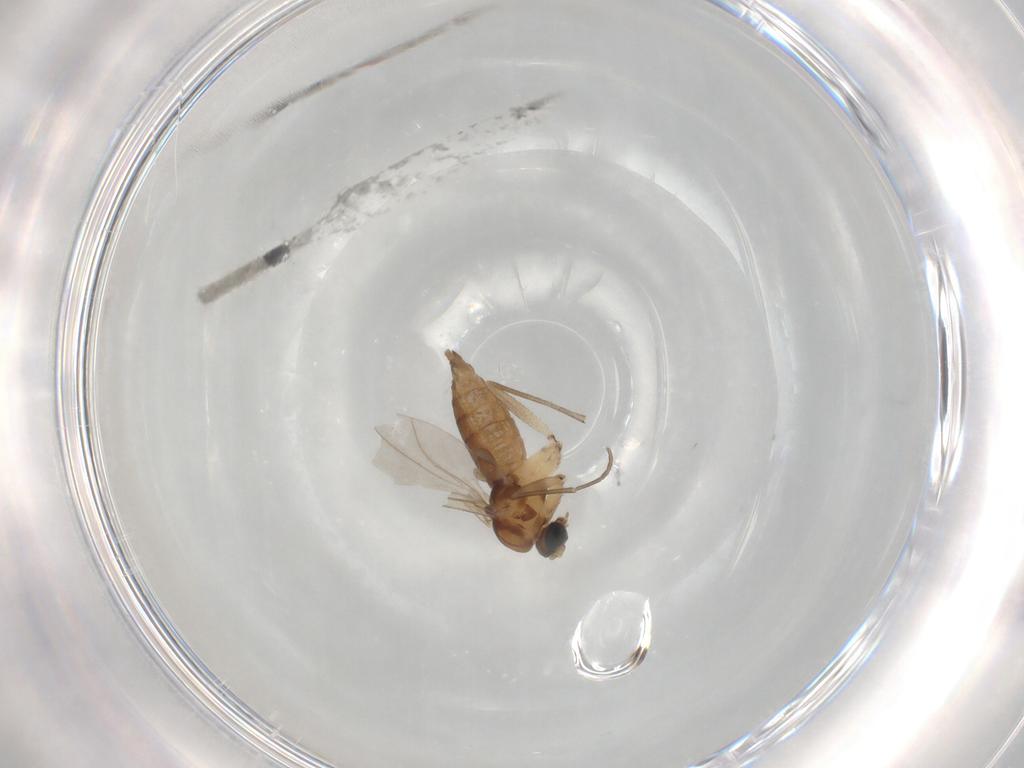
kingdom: Animalia
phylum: Arthropoda
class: Insecta
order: Diptera
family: Sciaridae
